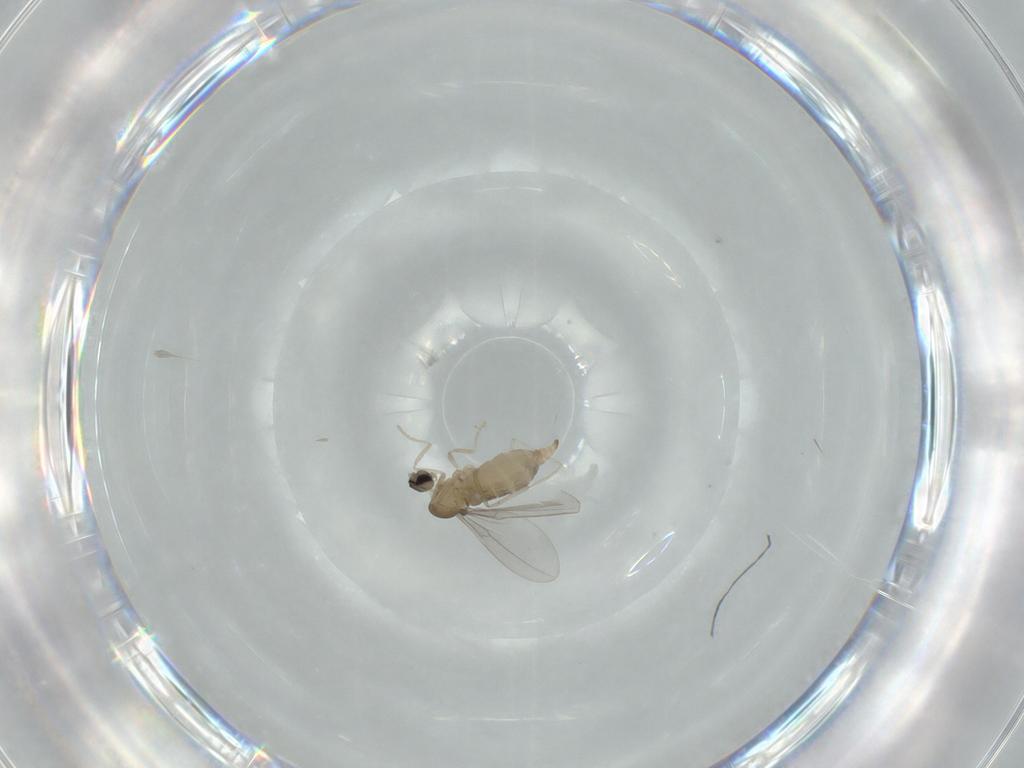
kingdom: Animalia
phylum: Arthropoda
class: Insecta
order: Diptera
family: Cecidomyiidae
